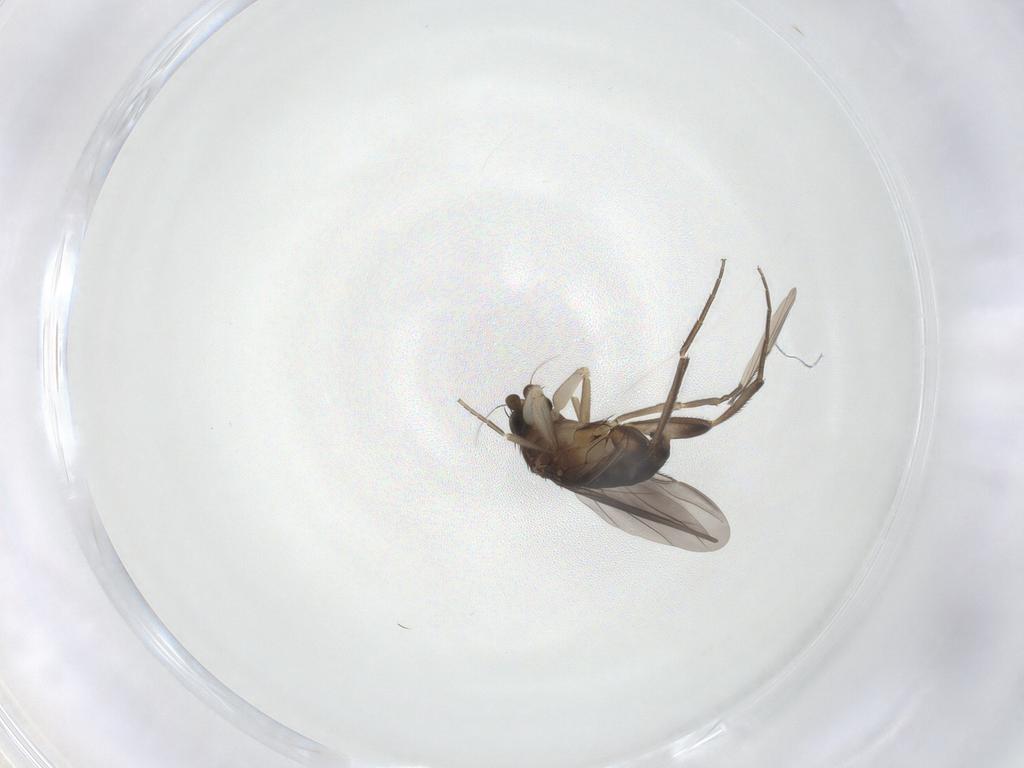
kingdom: Animalia
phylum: Arthropoda
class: Insecta
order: Diptera
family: Phoridae
